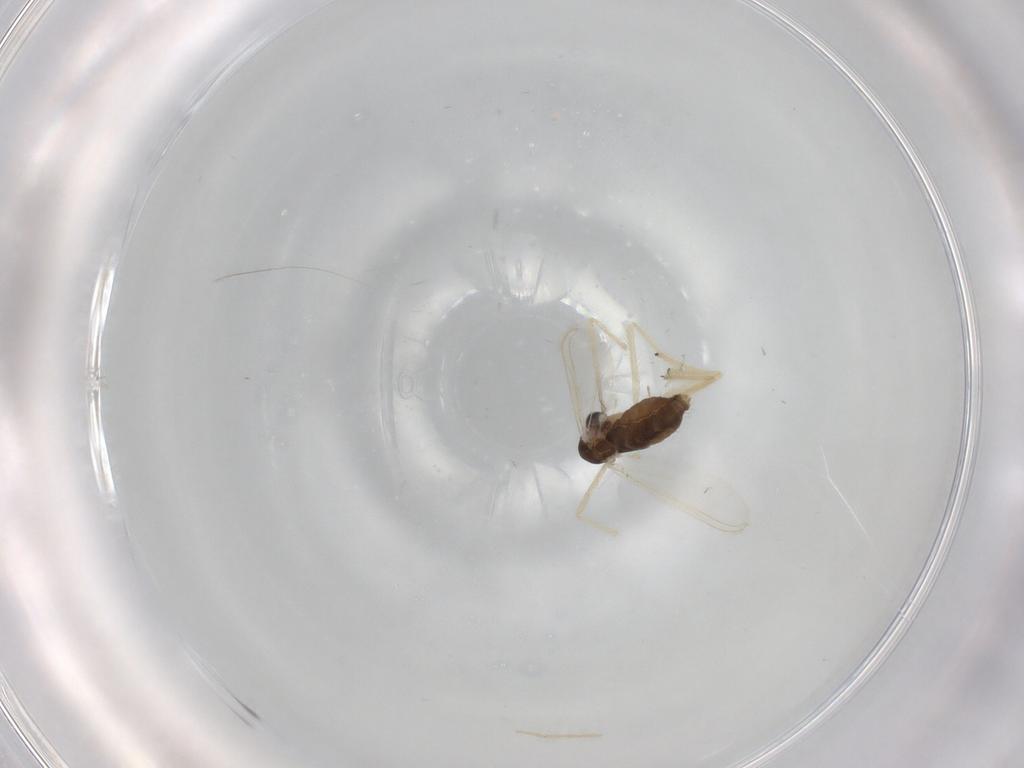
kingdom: Animalia
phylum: Arthropoda
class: Insecta
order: Diptera
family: Chironomidae
